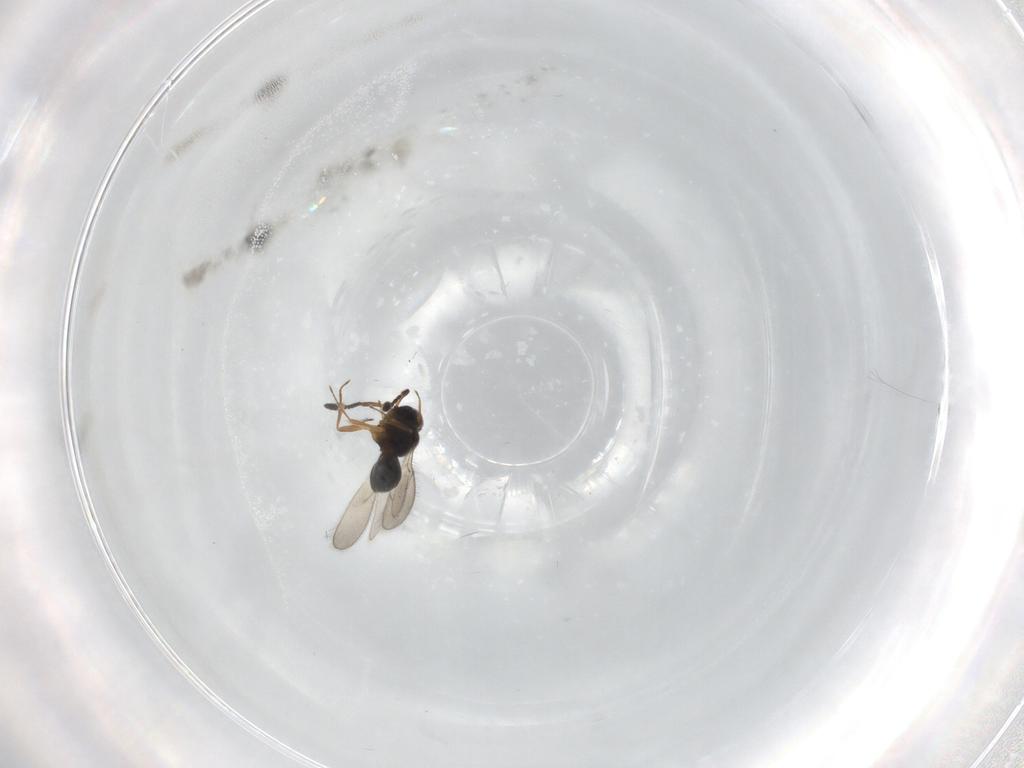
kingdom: Animalia
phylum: Arthropoda
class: Insecta
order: Hymenoptera
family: Scelionidae
